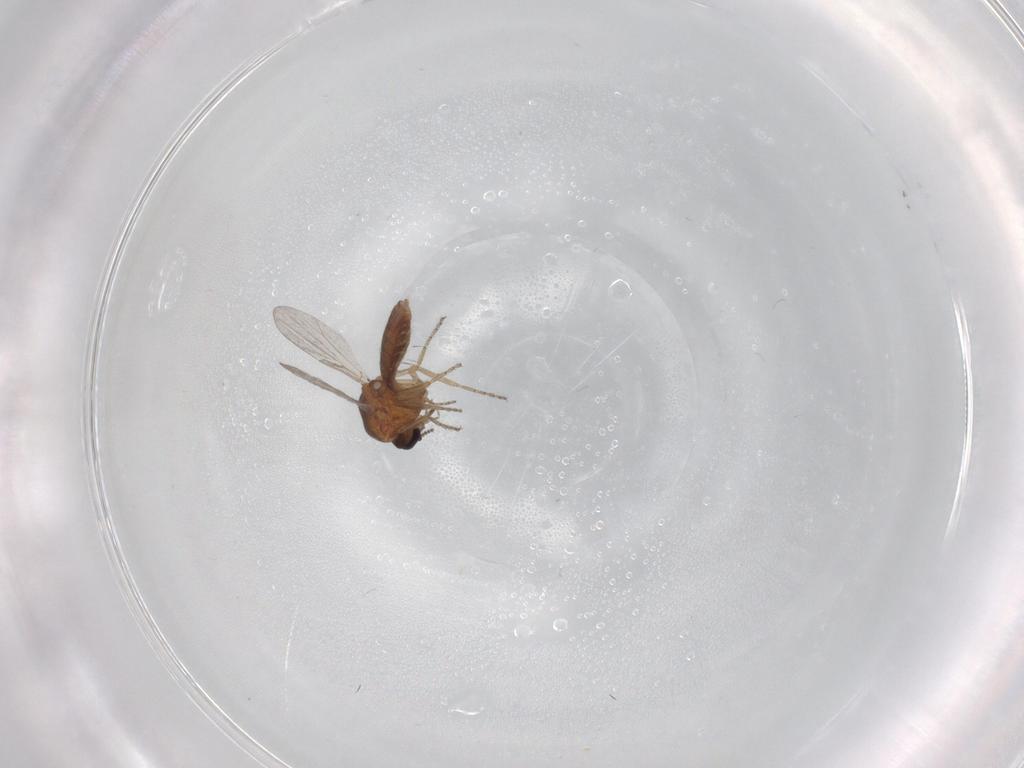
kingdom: Animalia
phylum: Arthropoda
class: Insecta
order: Diptera
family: Ceratopogonidae
